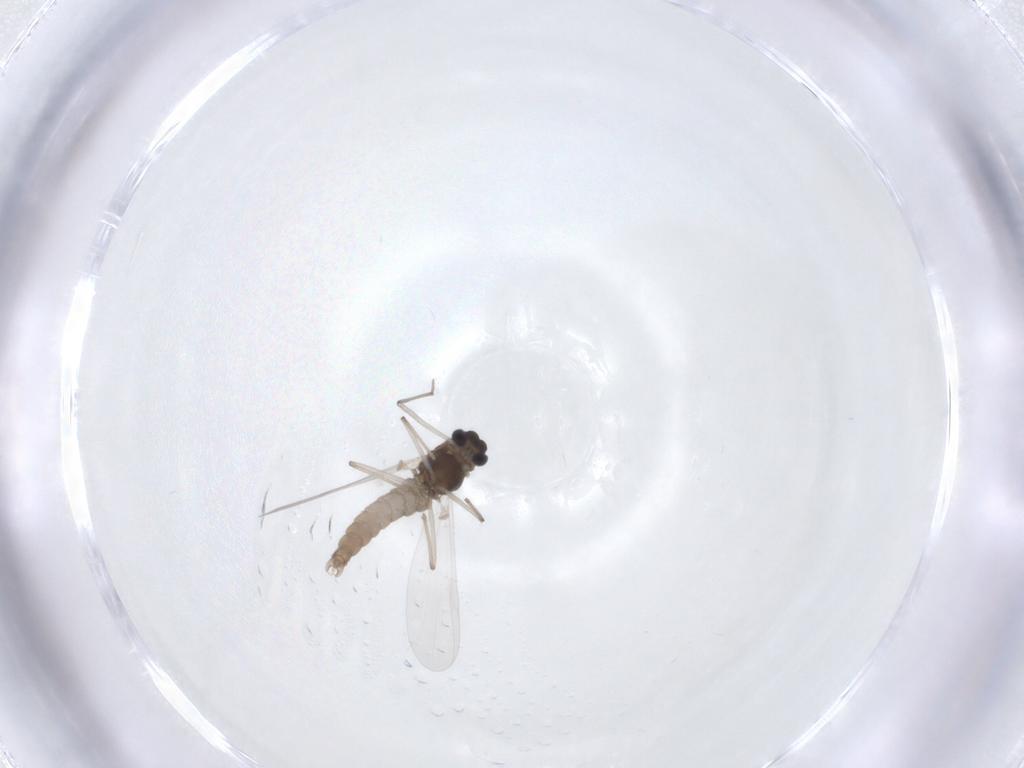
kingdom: Animalia
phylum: Arthropoda
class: Insecta
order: Diptera
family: Chironomidae
